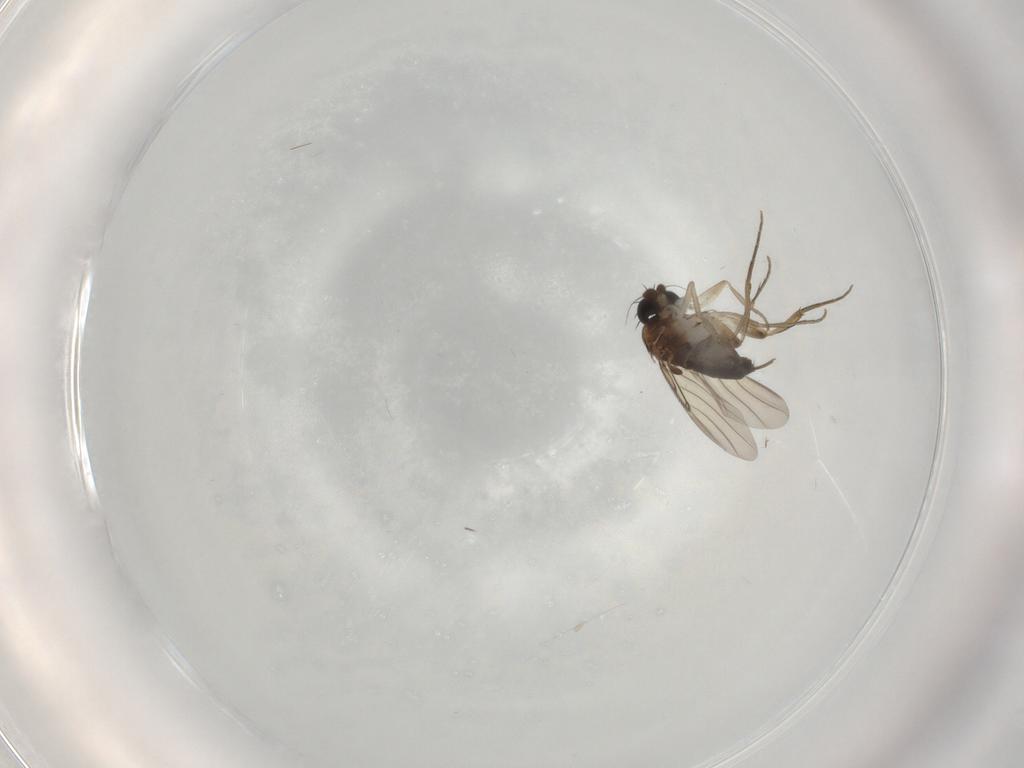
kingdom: Animalia
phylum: Arthropoda
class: Insecta
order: Diptera
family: Phoridae
